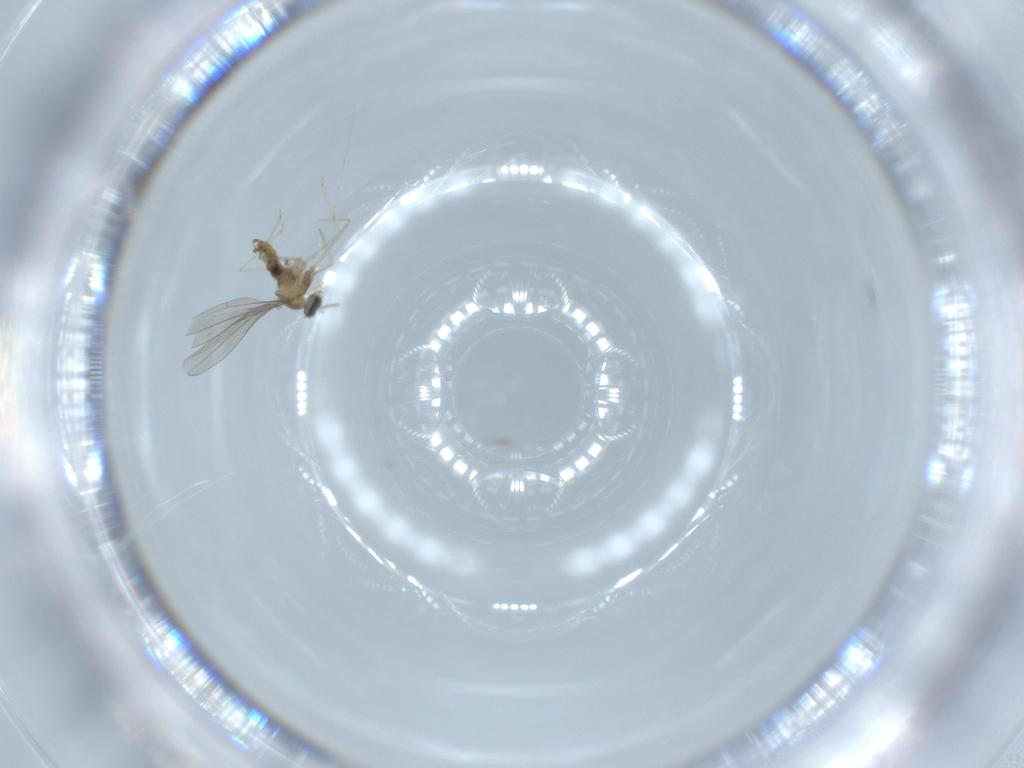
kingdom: Animalia
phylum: Arthropoda
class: Insecta
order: Diptera
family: Cecidomyiidae
